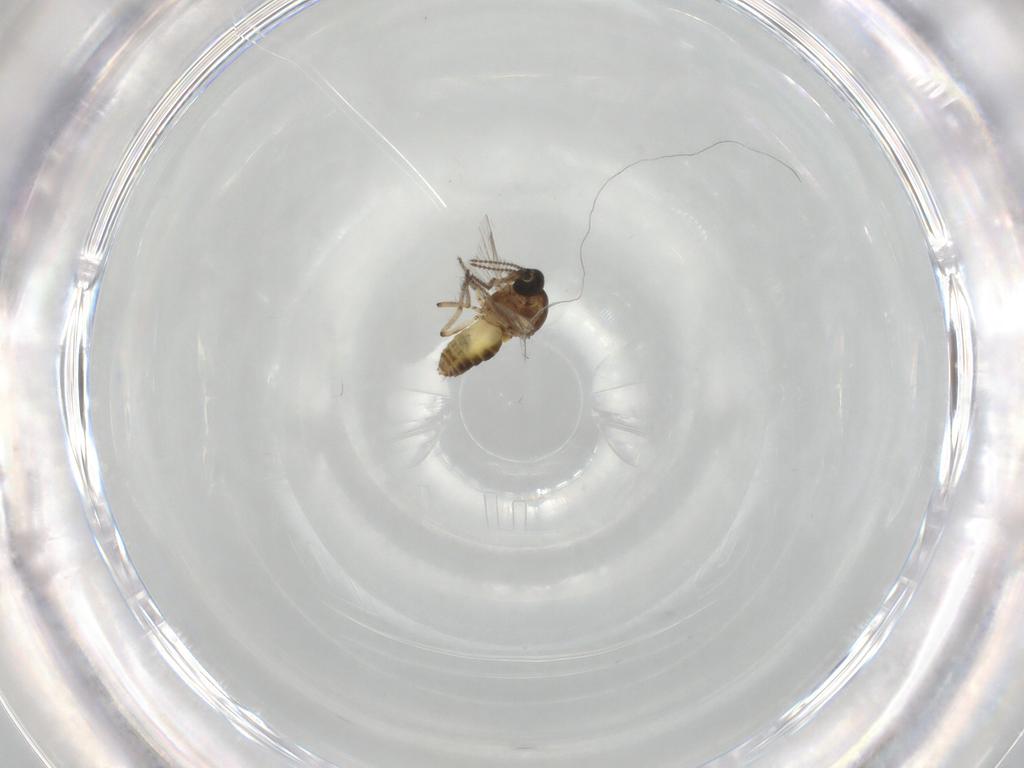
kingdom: Animalia
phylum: Arthropoda
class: Insecta
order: Diptera
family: Ceratopogonidae
